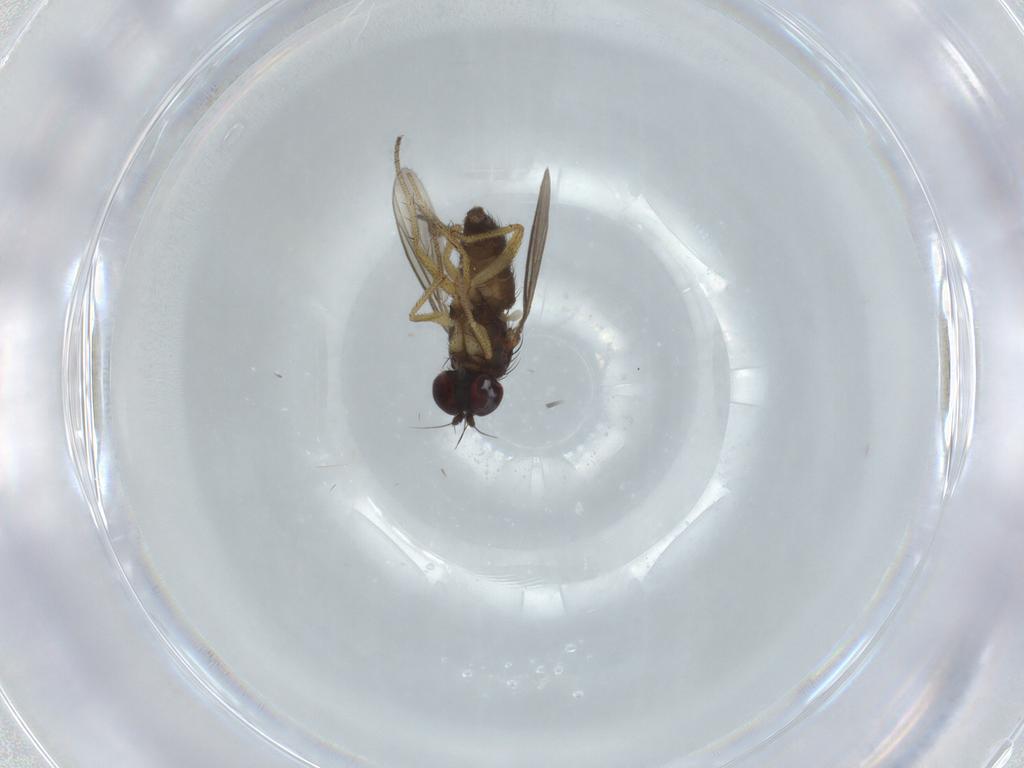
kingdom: Animalia
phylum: Arthropoda
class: Insecta
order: Diptera
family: Dolichopodidae
